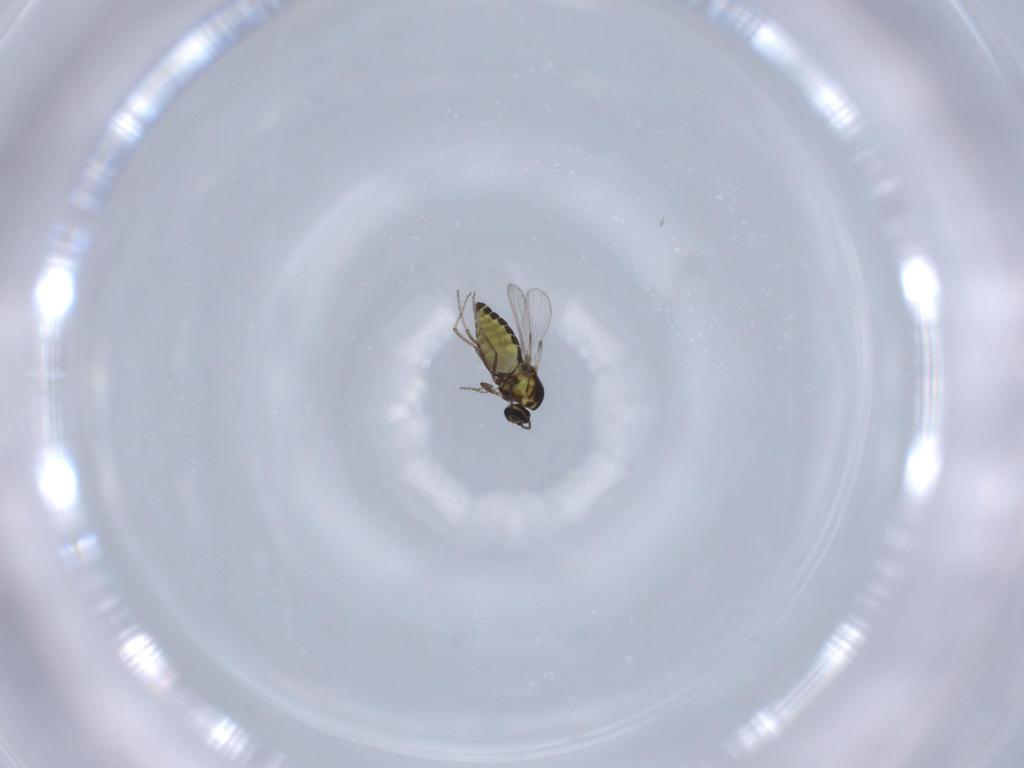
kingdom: Animalia
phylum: Arthropoda
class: Insecta
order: Diptera
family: Ceratopogonidae
